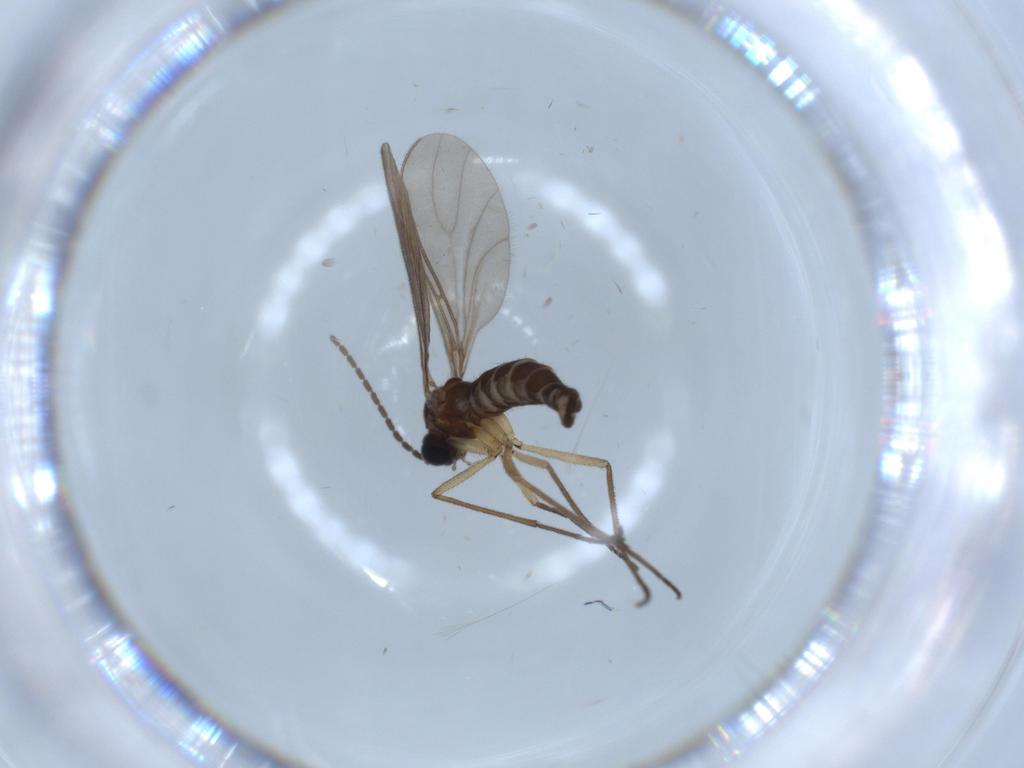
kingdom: Animalia
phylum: Arthropoda
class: Insecta
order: Diptera
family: Sciaridae
